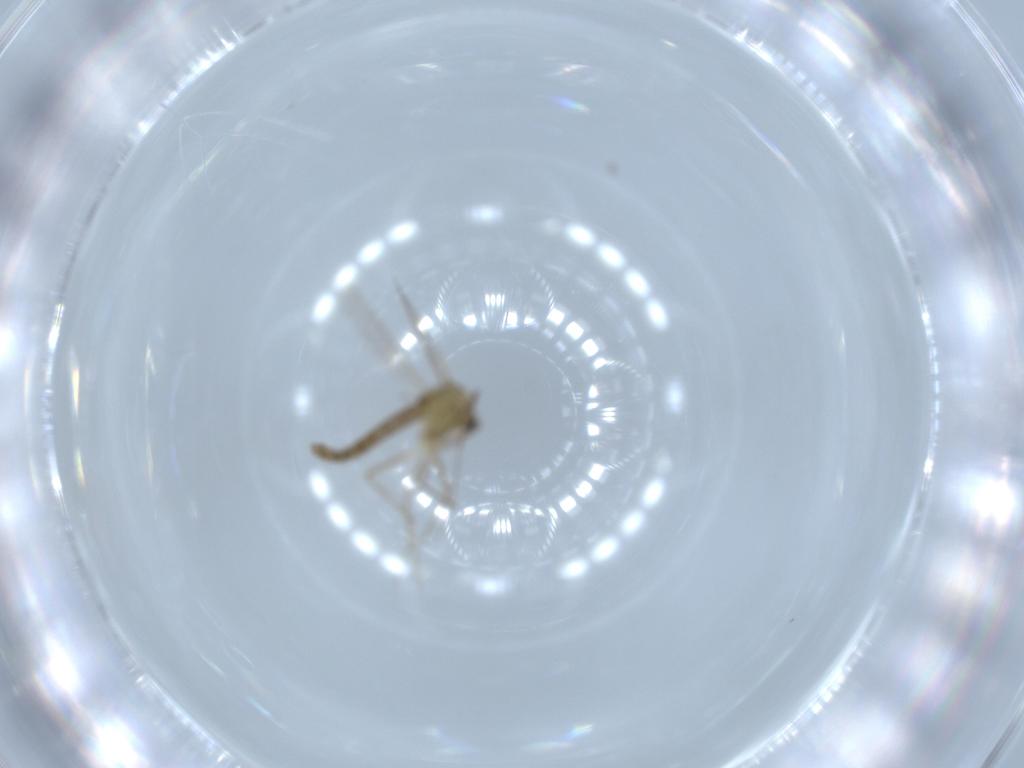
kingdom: Animalia
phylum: Arthropoda
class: Insecta
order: Diptera
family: Chironomidae
